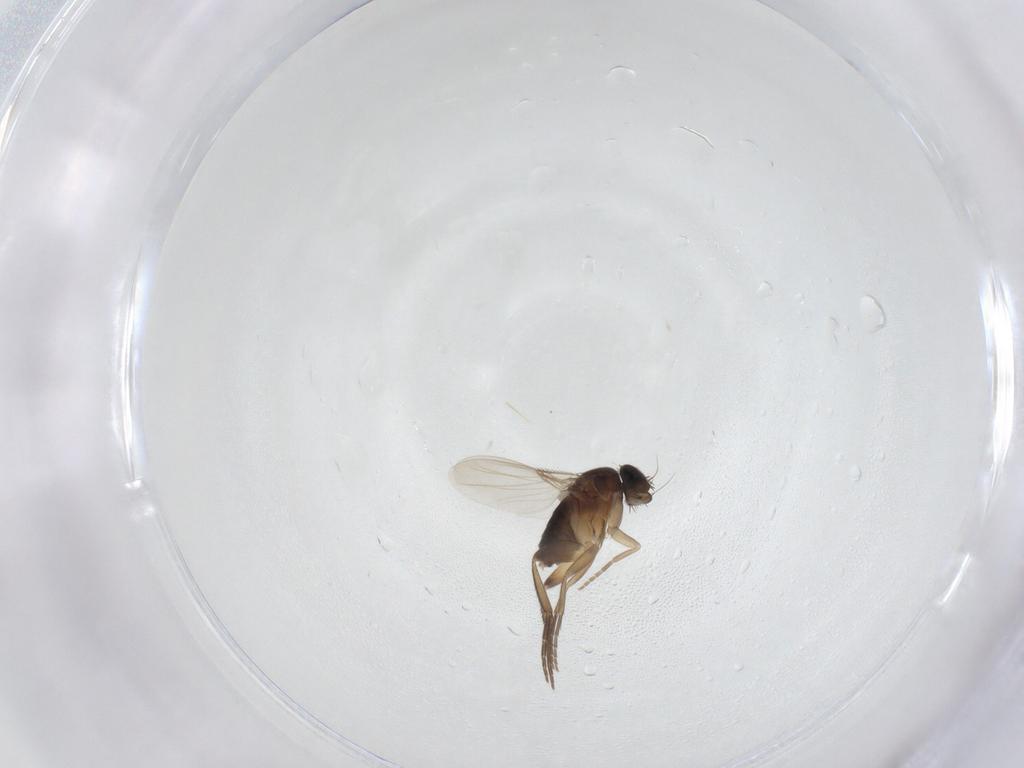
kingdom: Animalia
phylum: Arthropoda
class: Insecta
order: Diptera
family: Phoridae
